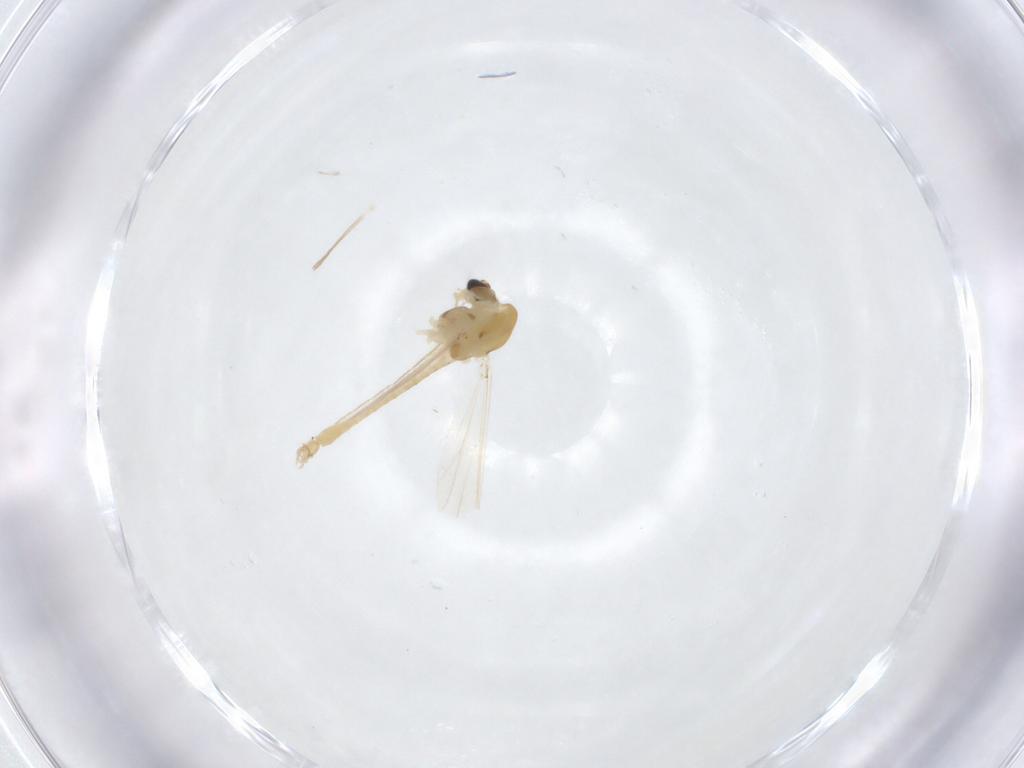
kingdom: Animalia
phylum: Arthropoda
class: Insecta
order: Diptera
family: Chironomidae
